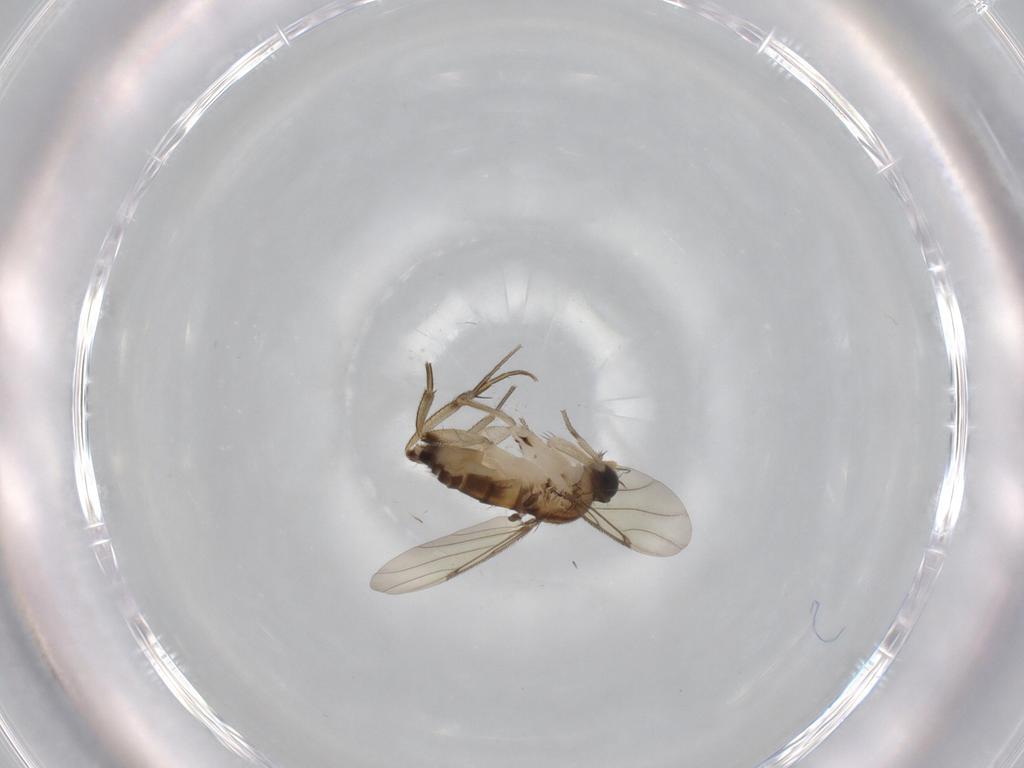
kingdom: Animalia
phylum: Arthropoda
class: Insecta
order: Diptera
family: Phoridae
